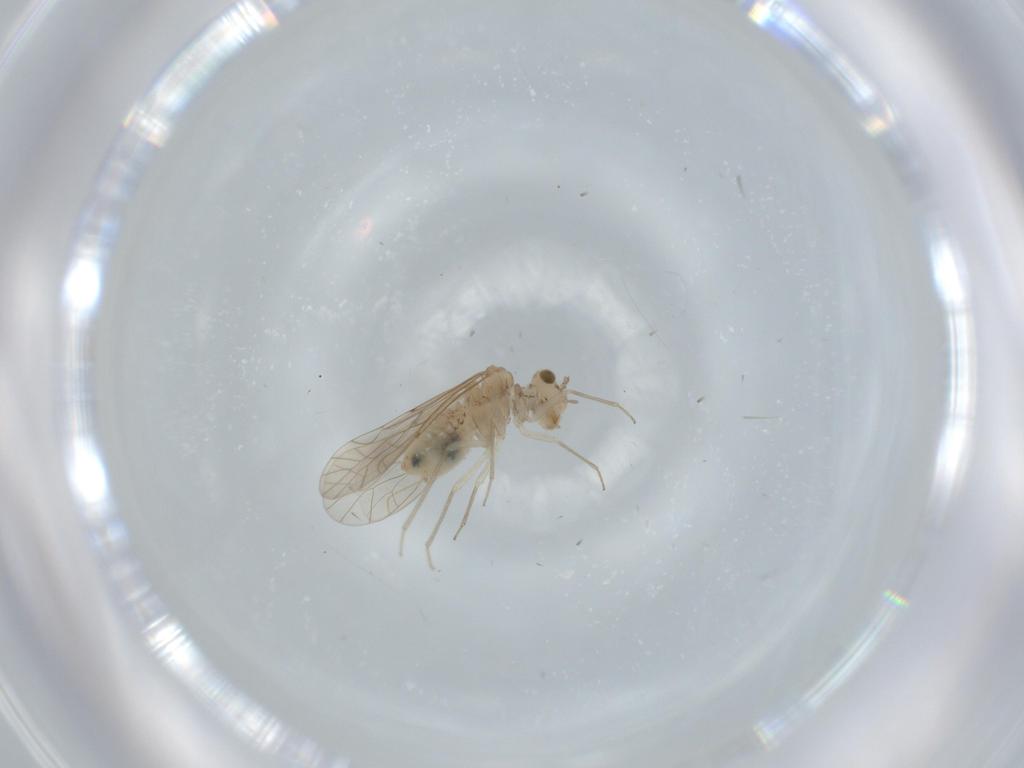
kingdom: Animalia
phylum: Arthropoda
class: Insecta
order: Psocodea
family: Lachesillidae
